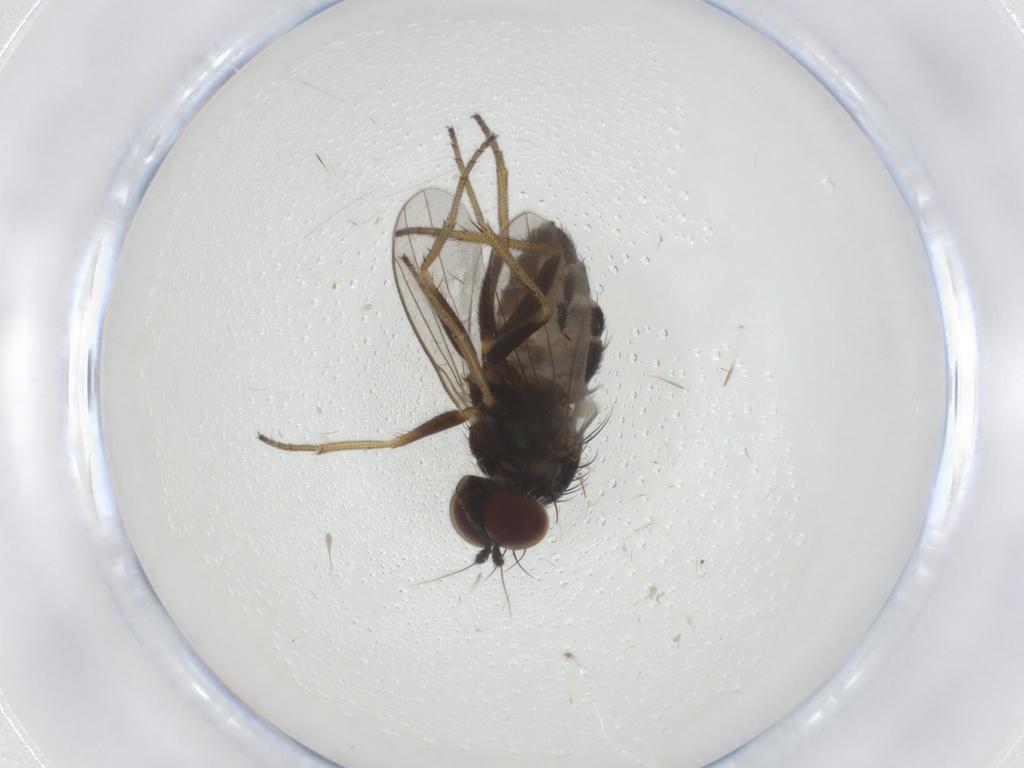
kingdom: Animalia
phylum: Arthropoda
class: Insecta
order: Diptera
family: Dolichopodidae
